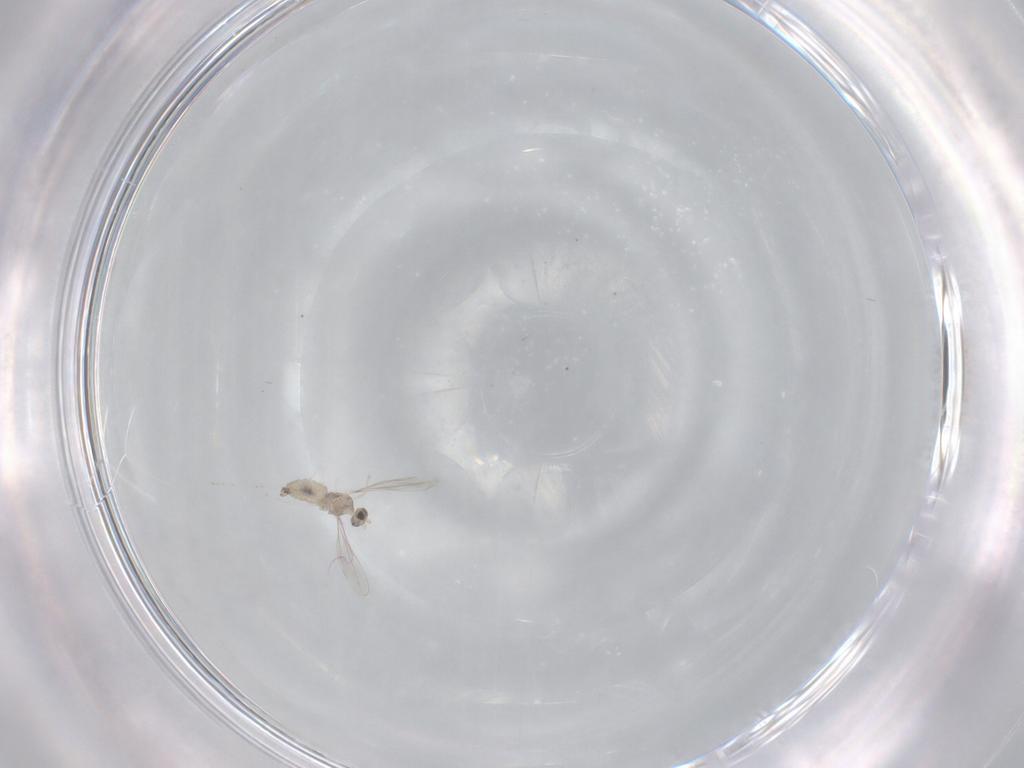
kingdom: Animalia
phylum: Arthropoda
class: Insecta
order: Diptera
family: Cecidomyiidae
